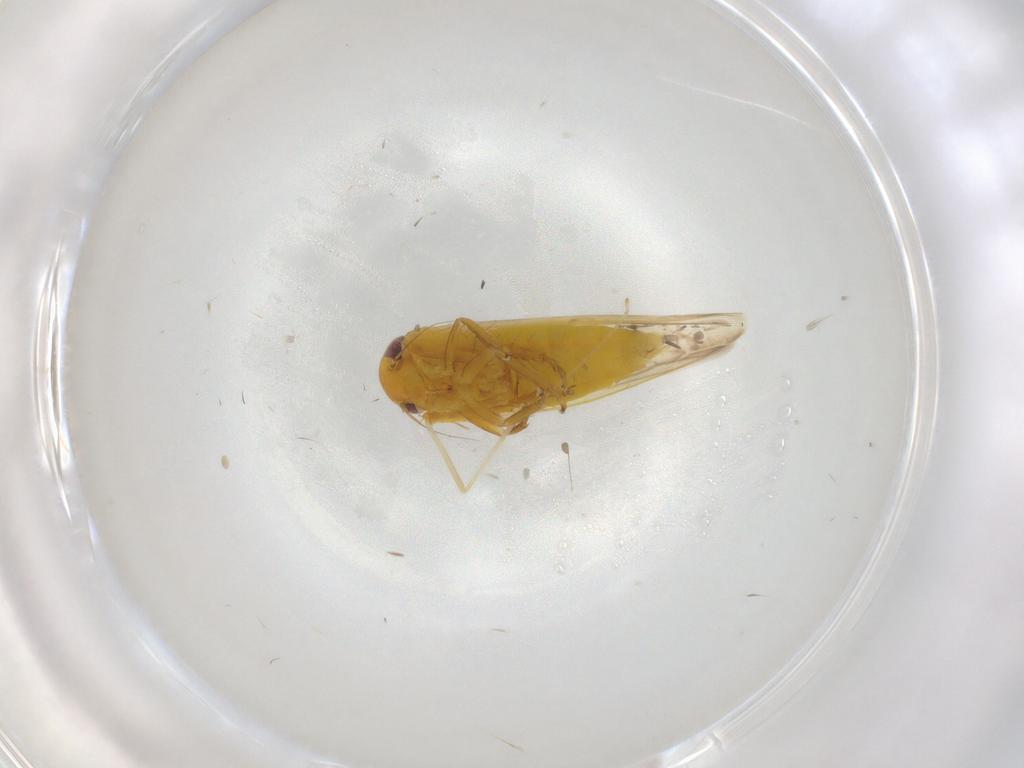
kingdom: Animalia
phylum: Arthropoda
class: Insecta
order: Hemiptera
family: Cicadellidae
